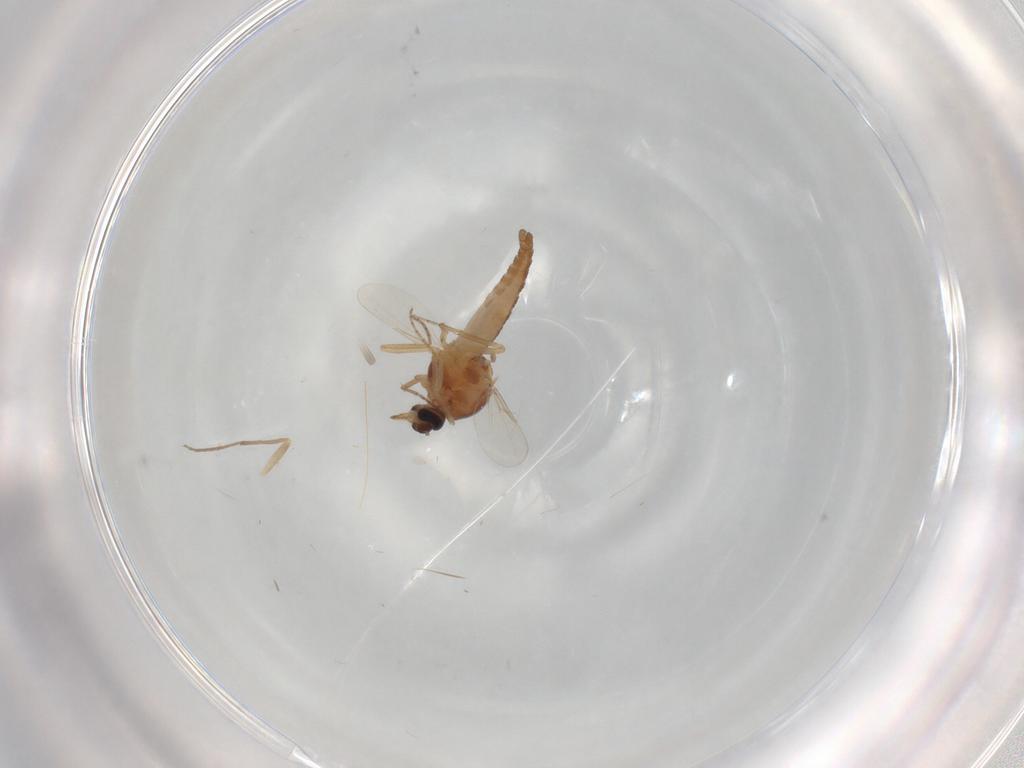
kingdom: Animalia
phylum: Arthropoda
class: Insecta
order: Diptera
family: Ceratopogonidae
